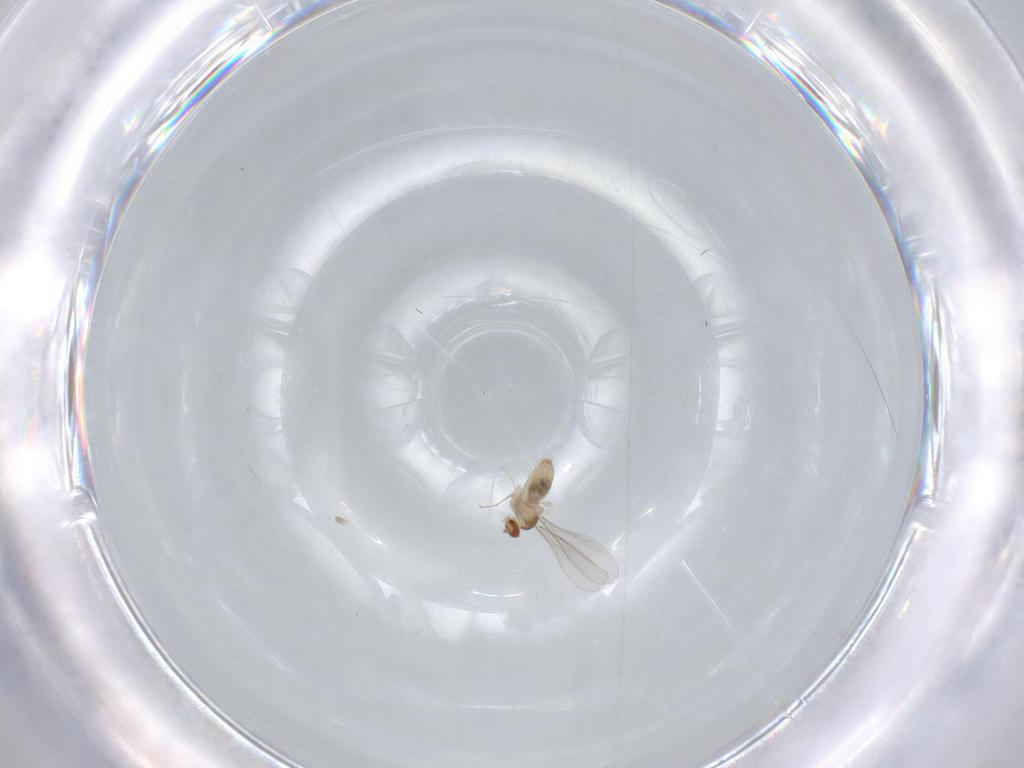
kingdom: Animalia
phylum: Arthropoda
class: Insecta
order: Diptera
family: Cecidomyiidae
